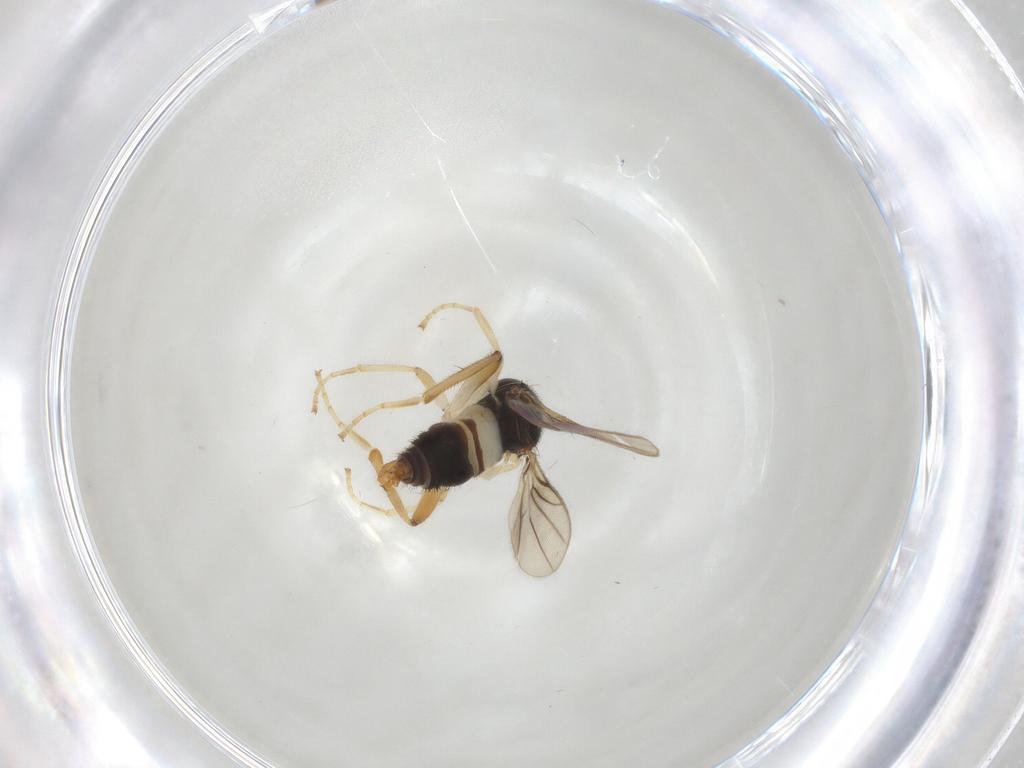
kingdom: Animalia
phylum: Arthropoda
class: Insecta
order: Diptera
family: Hybotidae
